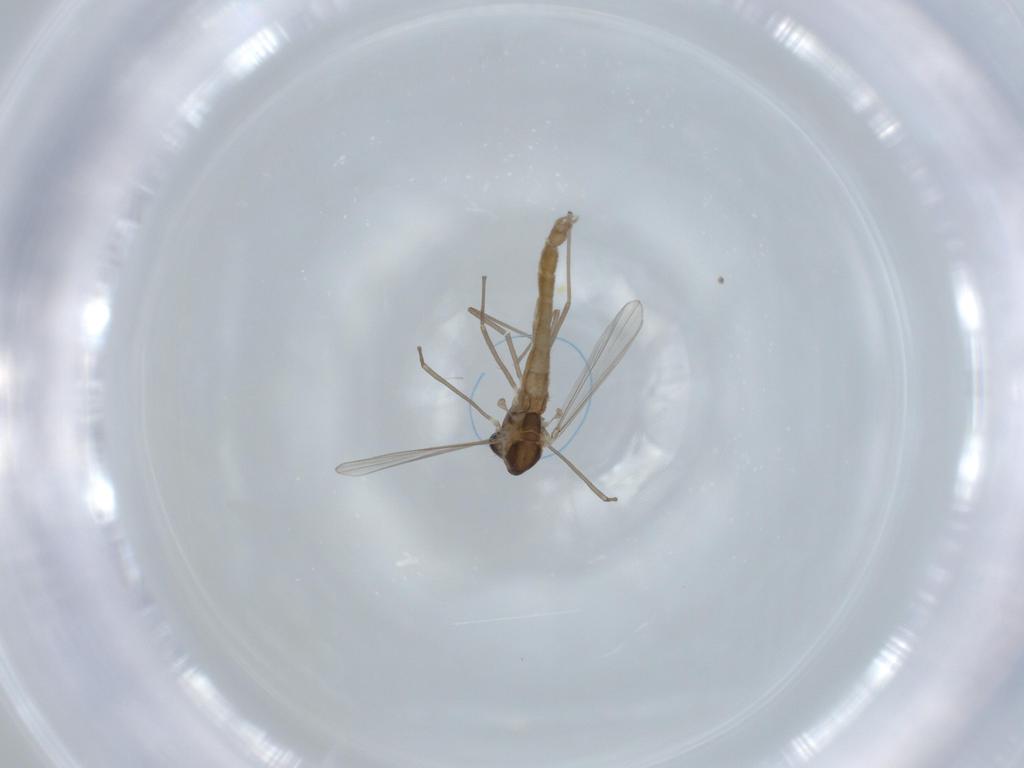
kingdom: Animalia
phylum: Arthropoda
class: Insecta
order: Diptera
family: Chironomidae
